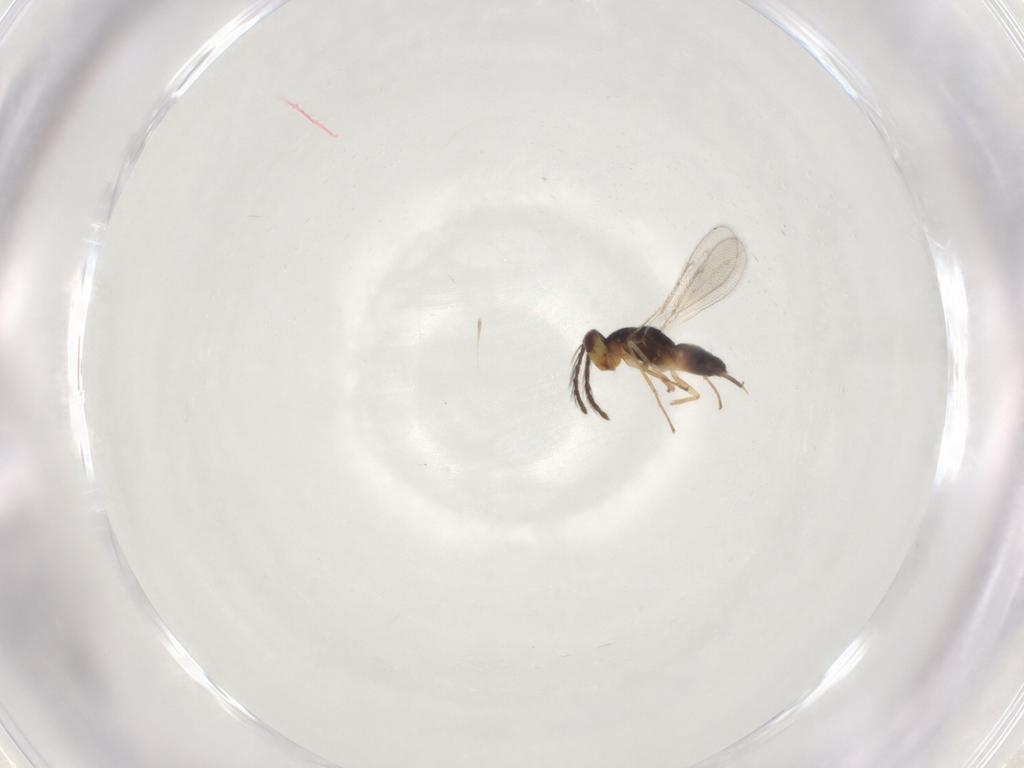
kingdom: Animalia
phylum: Arthropoda
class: Insecta
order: Hymenoptera
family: Eulophidae
